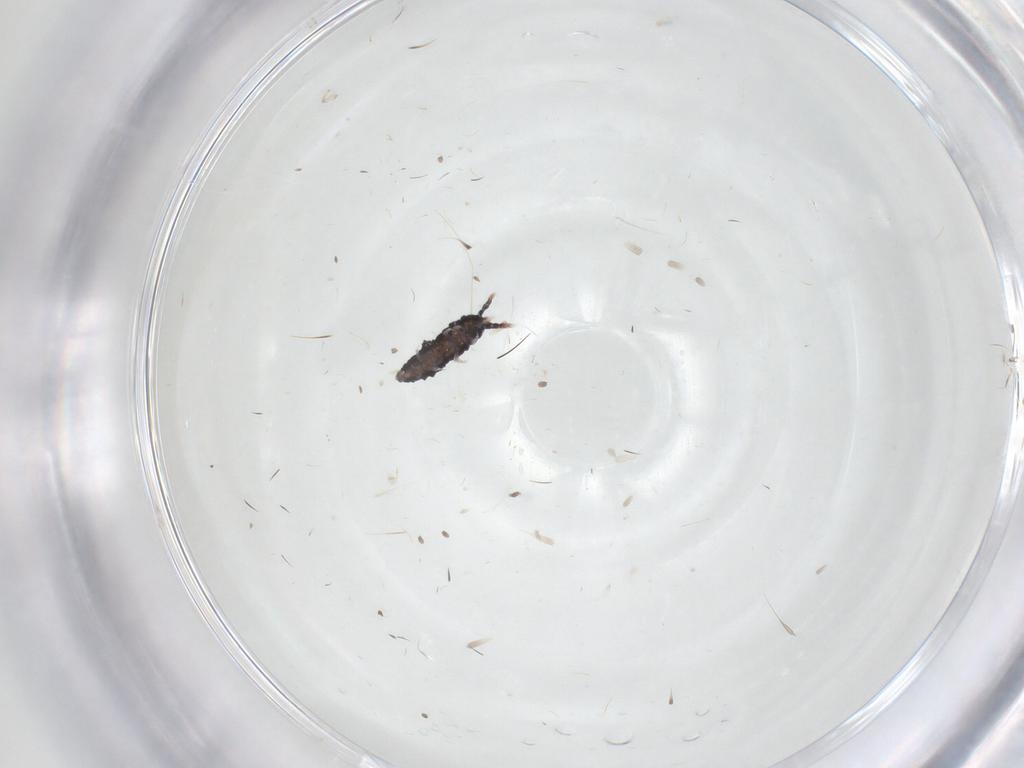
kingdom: Animalia
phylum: Arthropoda
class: Collembola
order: Poduromorpha
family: Neanuridae
